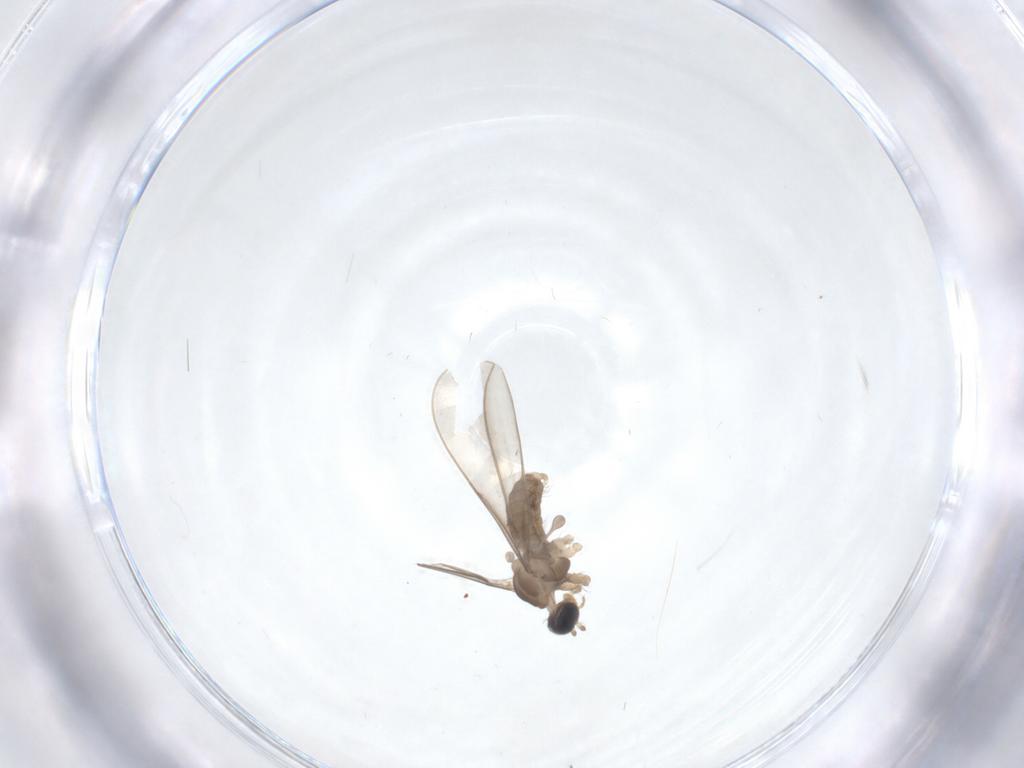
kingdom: Animalia
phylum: Arthropoda
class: Insecta
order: Diptera
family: Cecidomyiidae
